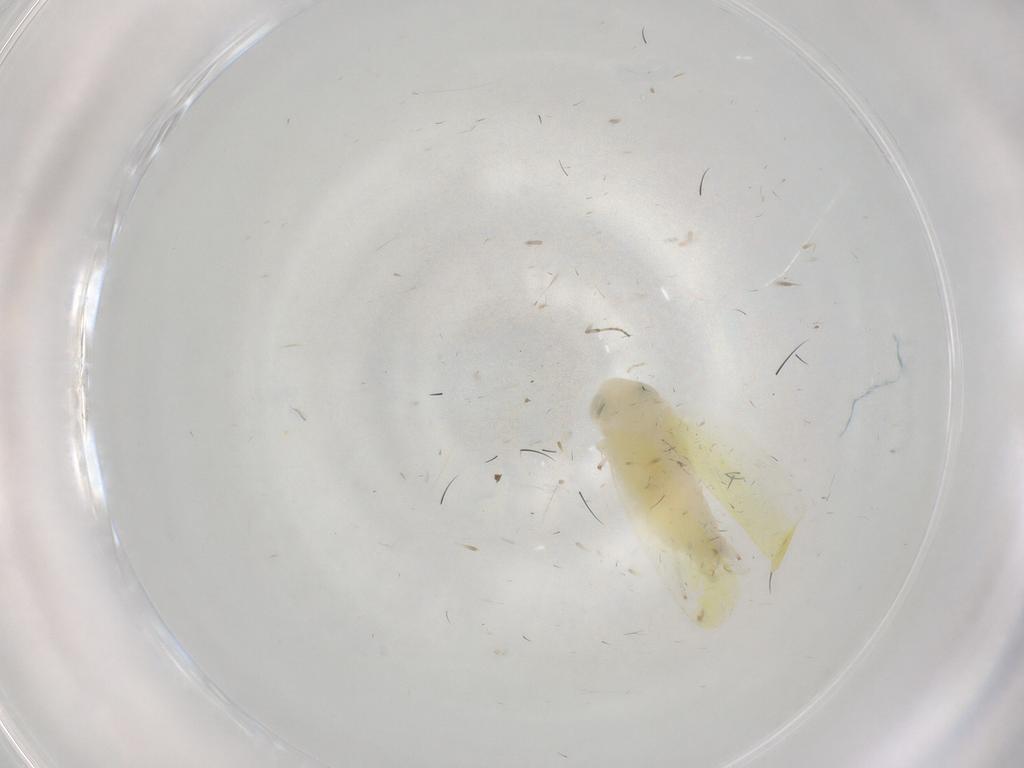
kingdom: Animalia
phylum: Arthropoda
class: Insecta
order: Hemiptera
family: Cicadellidae
